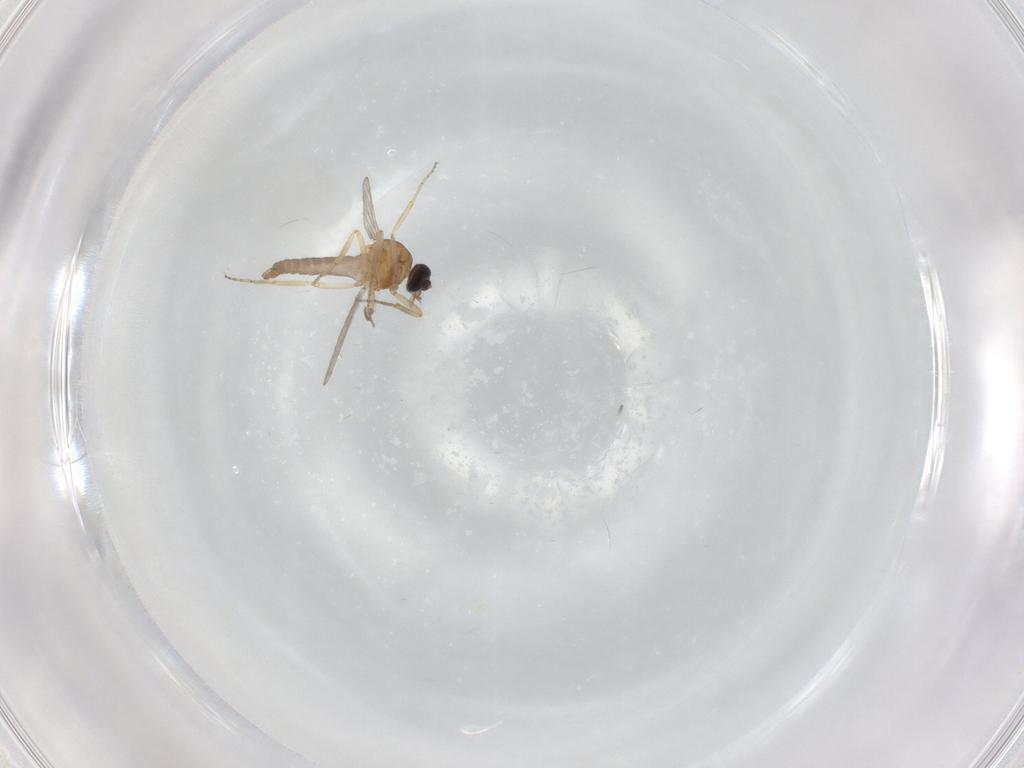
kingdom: Animalia
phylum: Arthropoda
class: Insecta
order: Diptera
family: Ceratopogonidae
